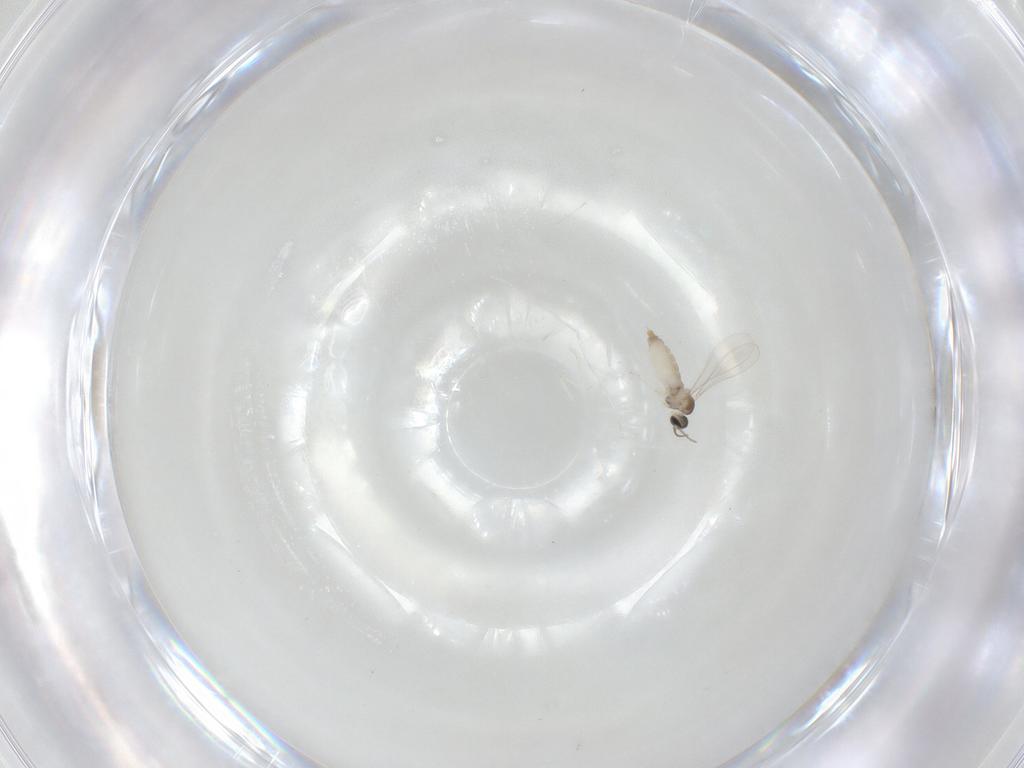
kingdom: Animalia
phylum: Arthropoda
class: Insecta
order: Diptera
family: Phoridae
